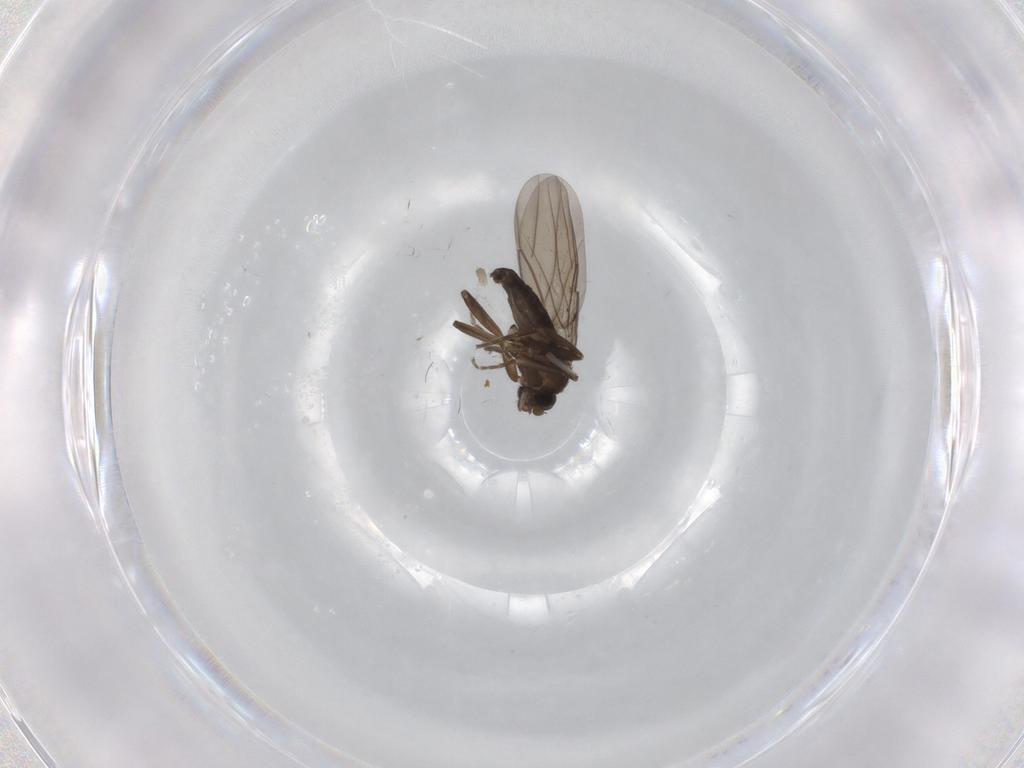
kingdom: Animalia
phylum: Arthropoda
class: Insecta
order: Diptera
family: Phoridae
